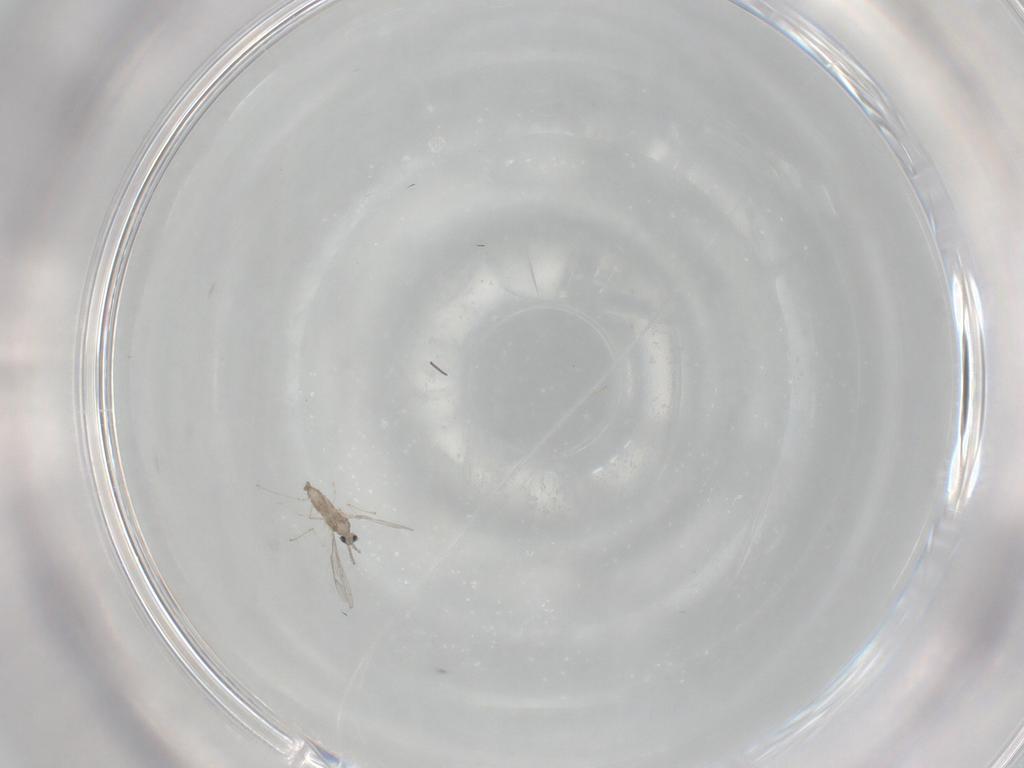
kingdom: Animalia
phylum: Arthropoda
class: Insecta
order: Diptera
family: Cecidomyiidae
